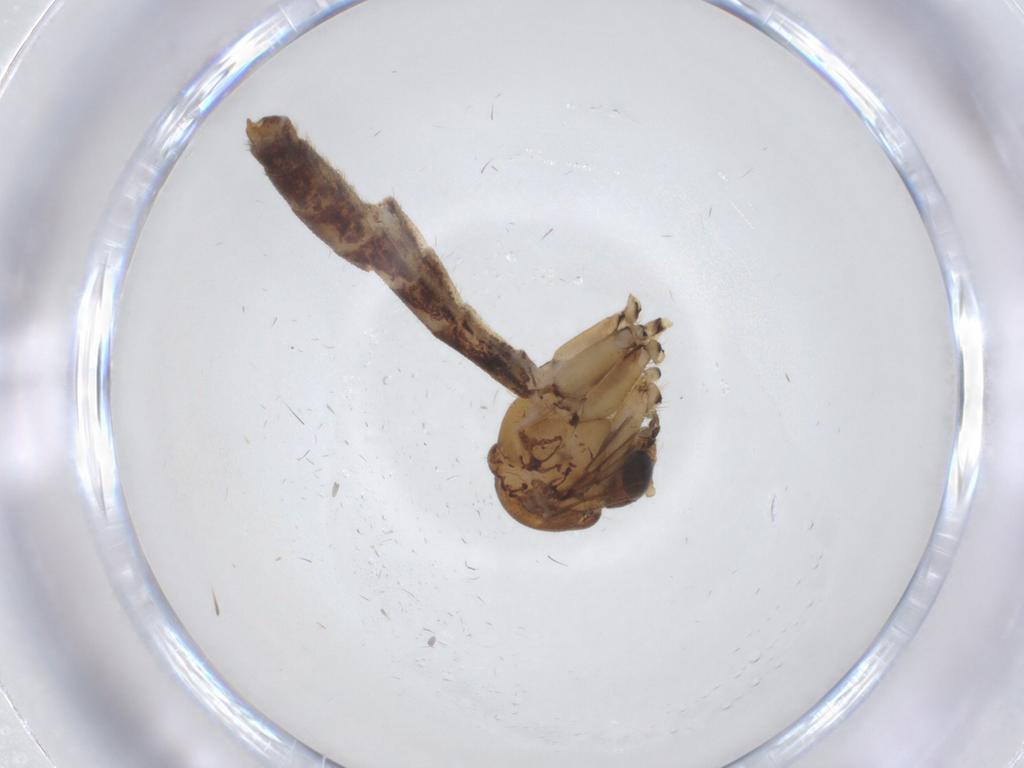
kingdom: Animalia
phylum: Arthropoda
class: Insecta
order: Diptera
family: Mycetophilidae
